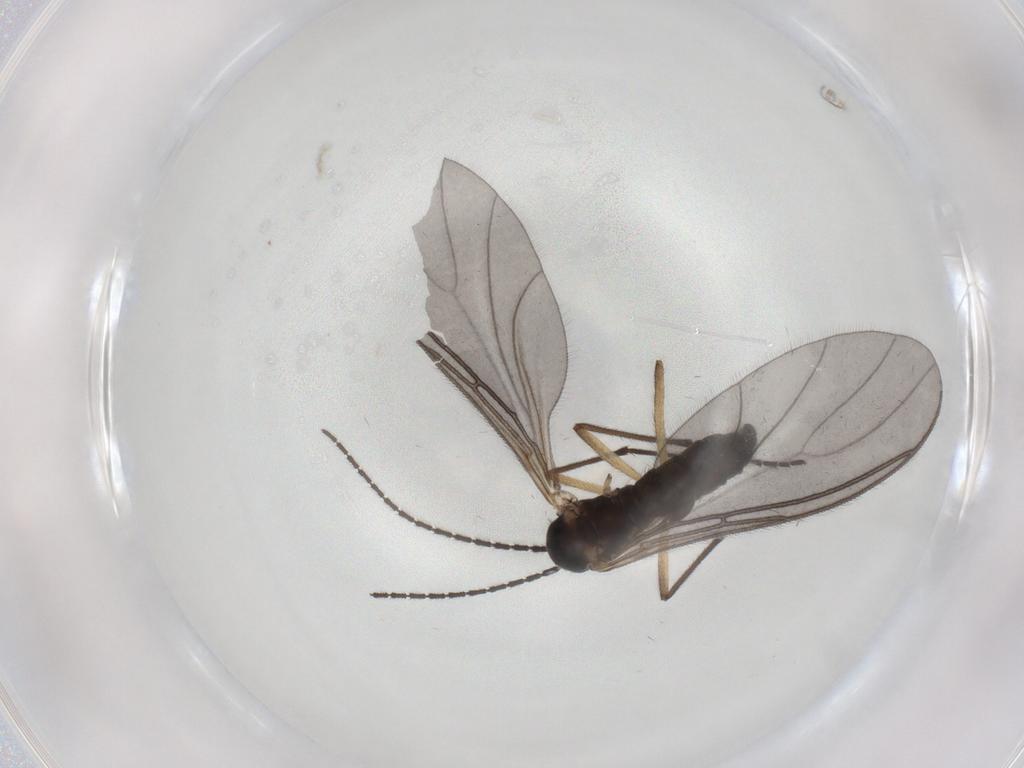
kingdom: Animalia
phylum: Arthropoda
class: Insecta
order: Diptera
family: Sciaridae
